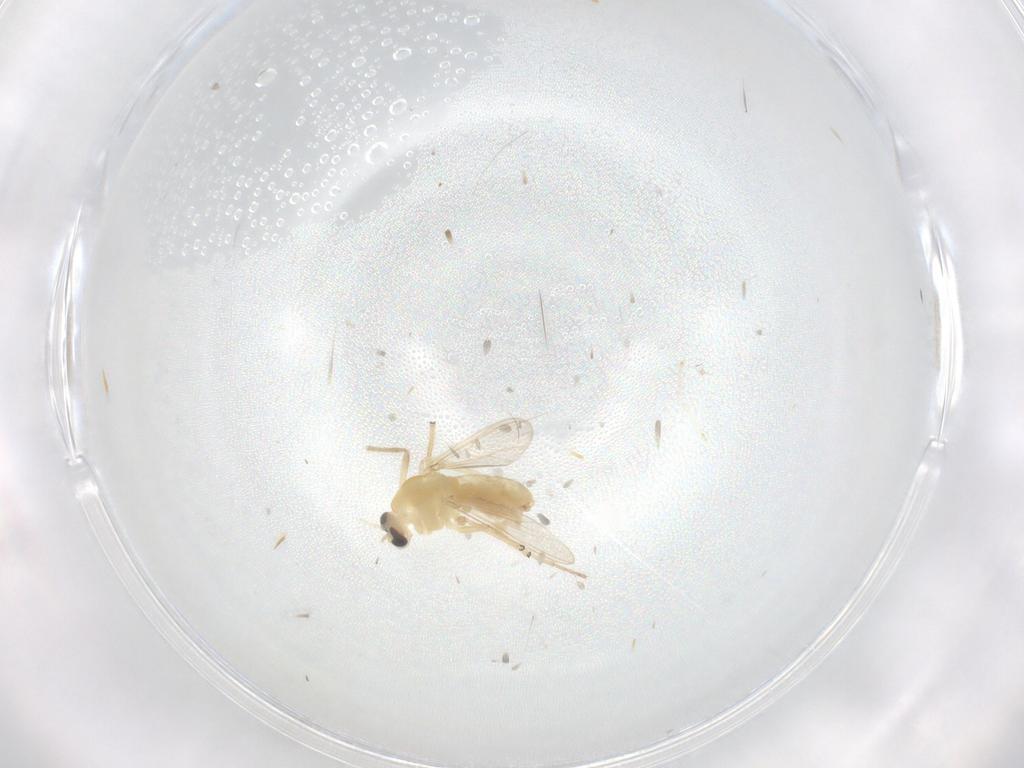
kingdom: Animalia
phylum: Arthropoda
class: Insecta
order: Diptera
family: Chironomidae
